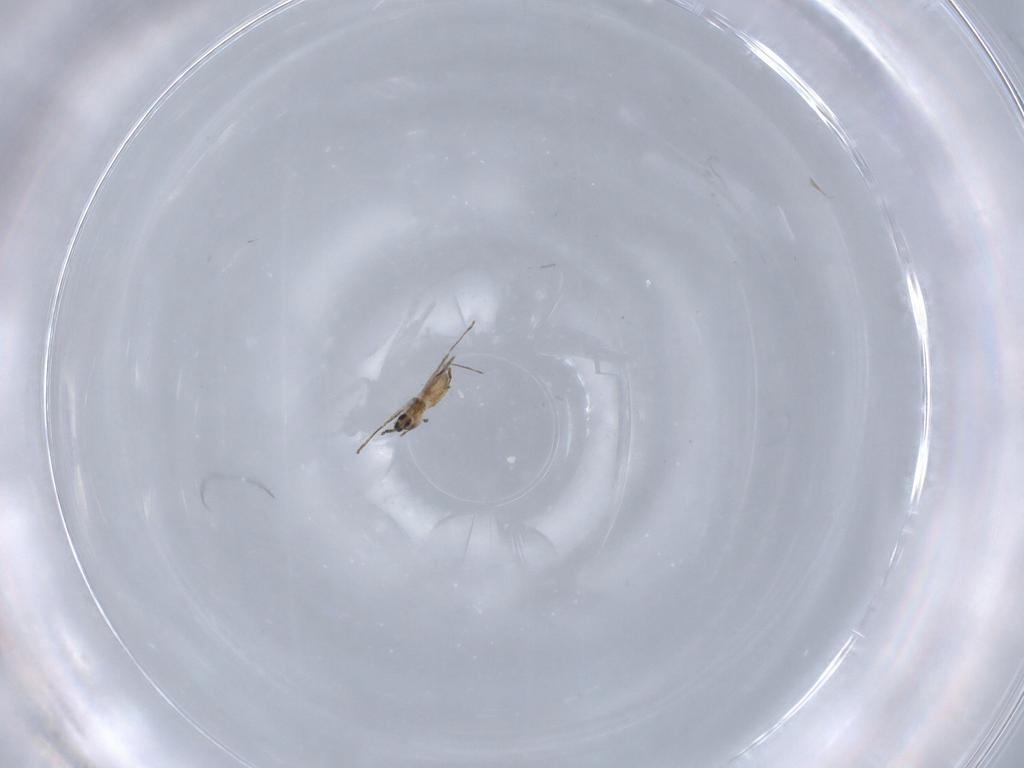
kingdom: Animalia
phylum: Arthropoda
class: Insecta
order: Diptera
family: Cecidomyiidae
